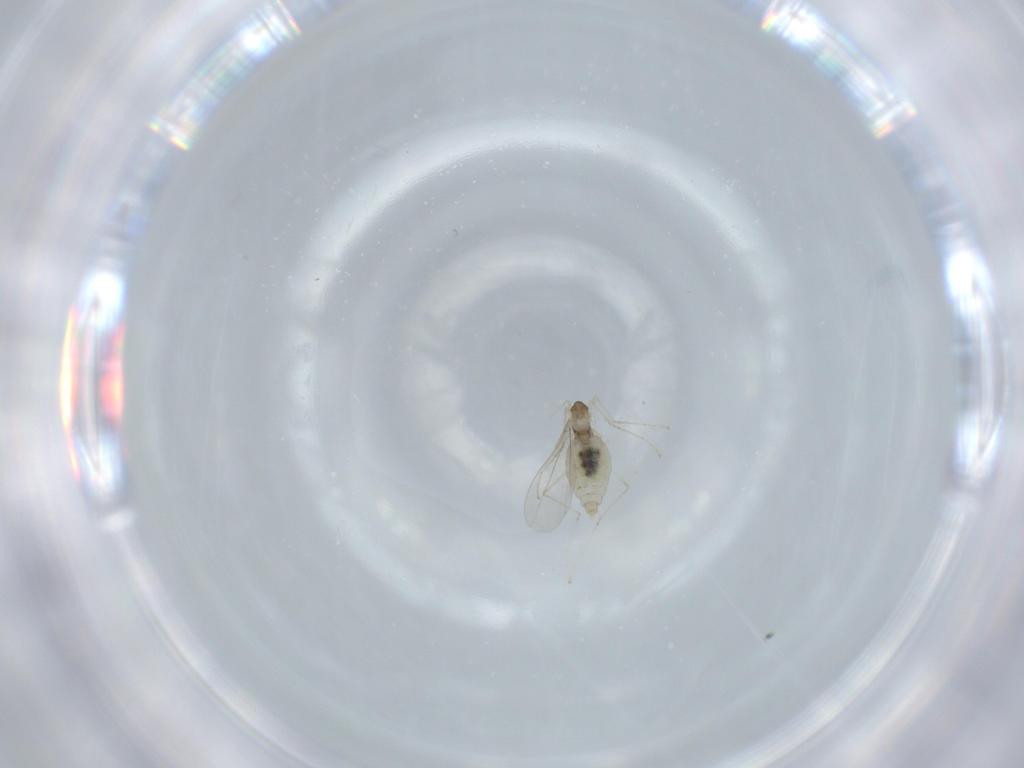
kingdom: Animalia
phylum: Arthropoda
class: Insecta
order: Diptera
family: Cecidomyiidae
